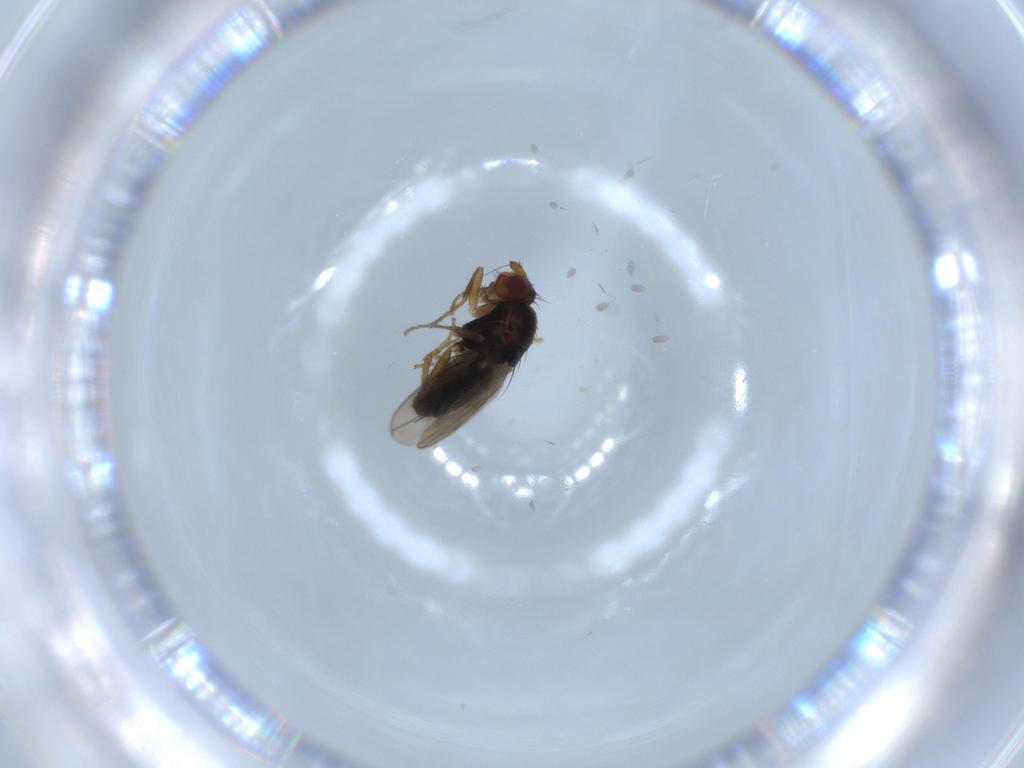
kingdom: Animalia
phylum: Arthropoda
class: Insecta
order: Diptera
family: Sphaeroceridae
